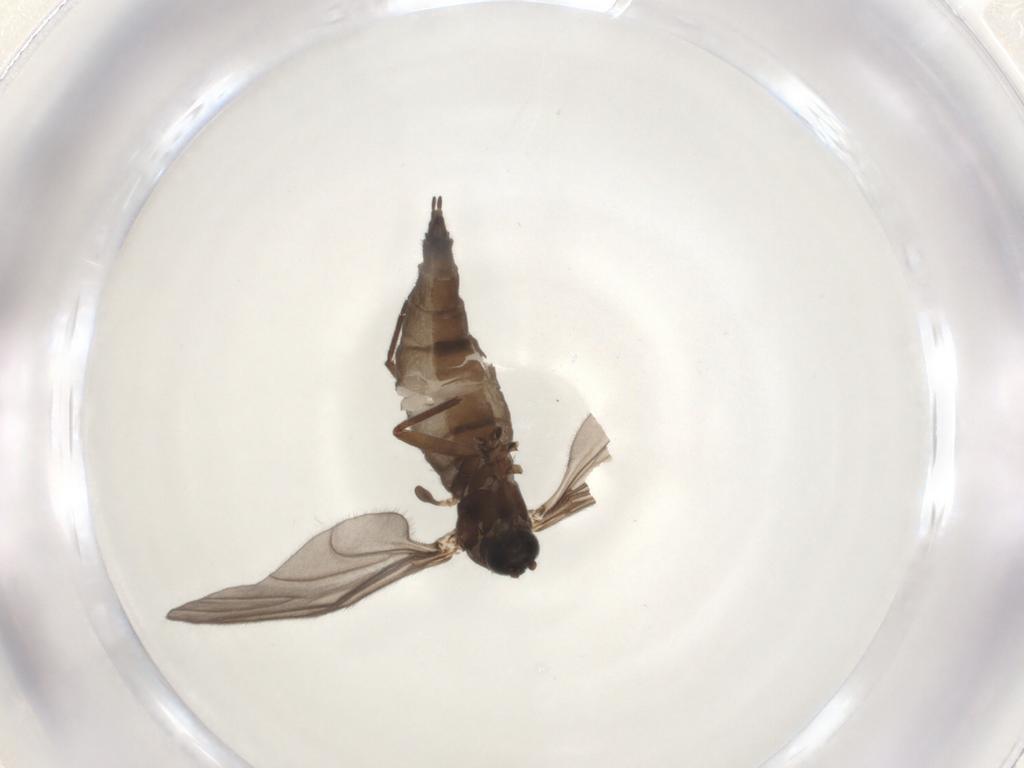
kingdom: Animalia
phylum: Arthropoda
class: Insecta
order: Diptera
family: Sciaridae
